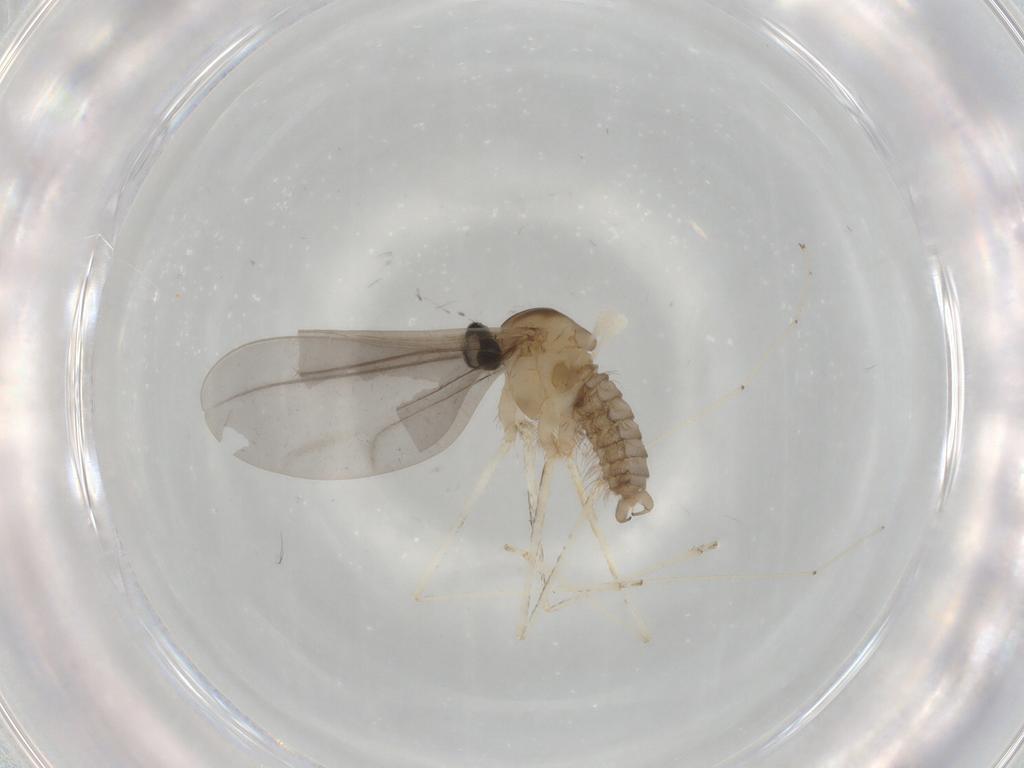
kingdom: Animalia
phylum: Arthropoda
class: Insecta
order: Diptera
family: Cecidomyiidae
